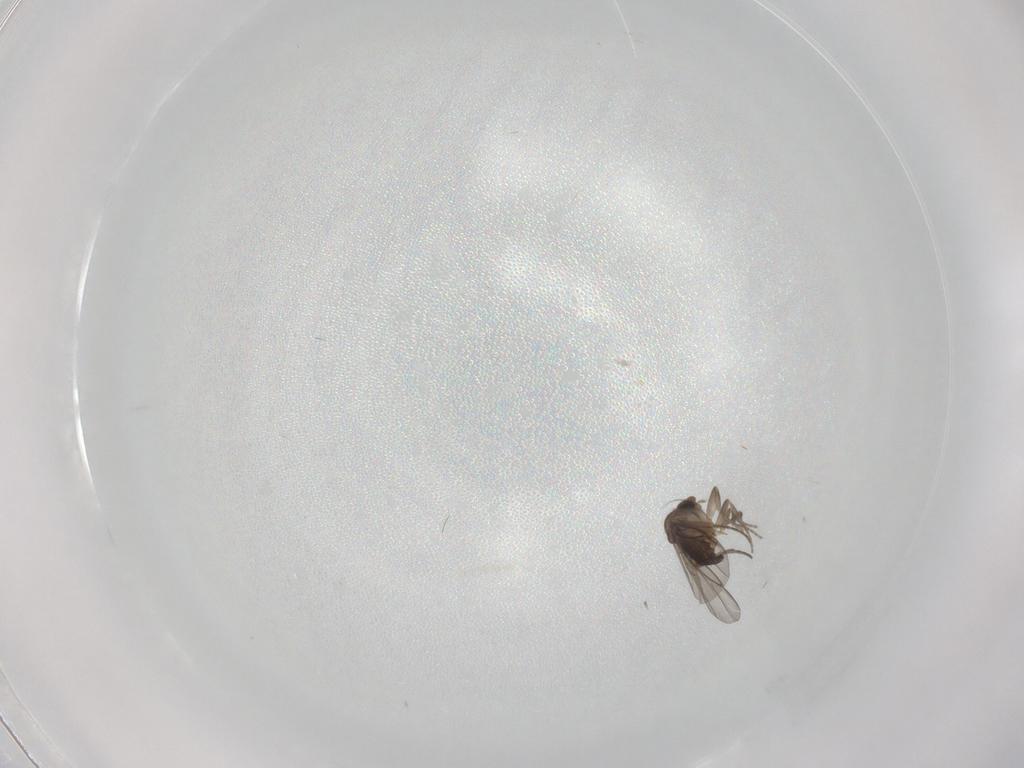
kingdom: Animalia
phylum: Arthropoda
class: Insecta
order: Diptera
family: Phoridae
